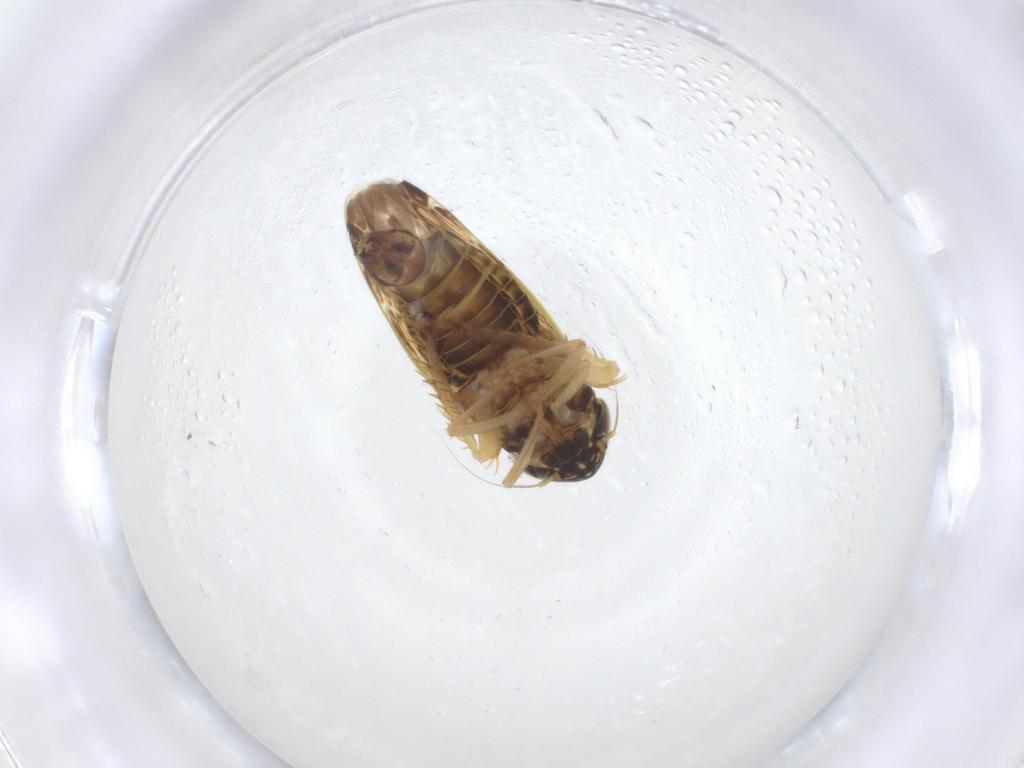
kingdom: Animalia
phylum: Arthropoda
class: Insecta
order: Hemiptera
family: Cicadellidae
